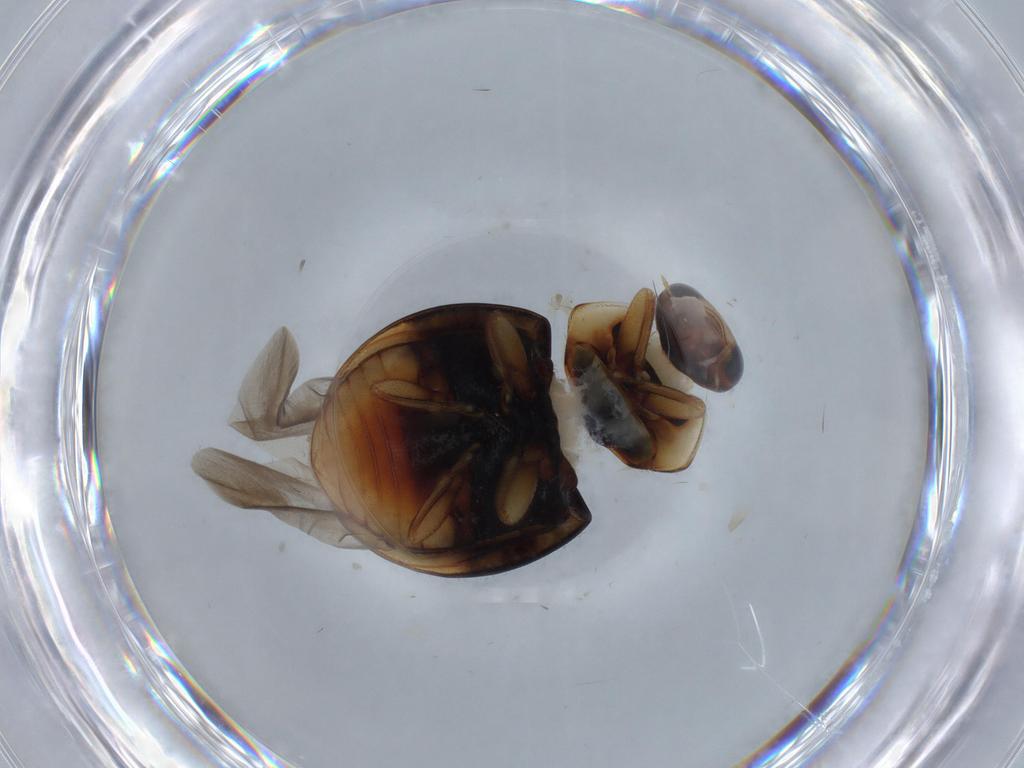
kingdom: Animalia
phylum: Arthropoda
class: Insecta
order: Coleoptera
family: Coccinellidae
